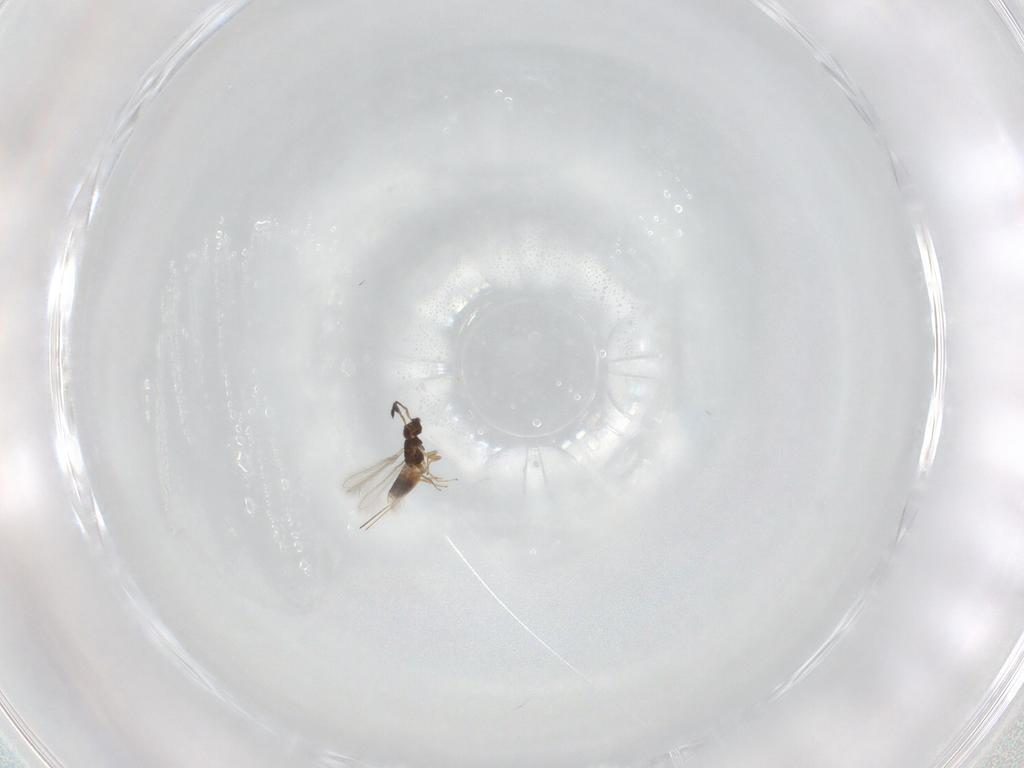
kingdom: Animalia
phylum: Arthropoda
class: Insecta
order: Hymenoptera
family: Mymaridae
